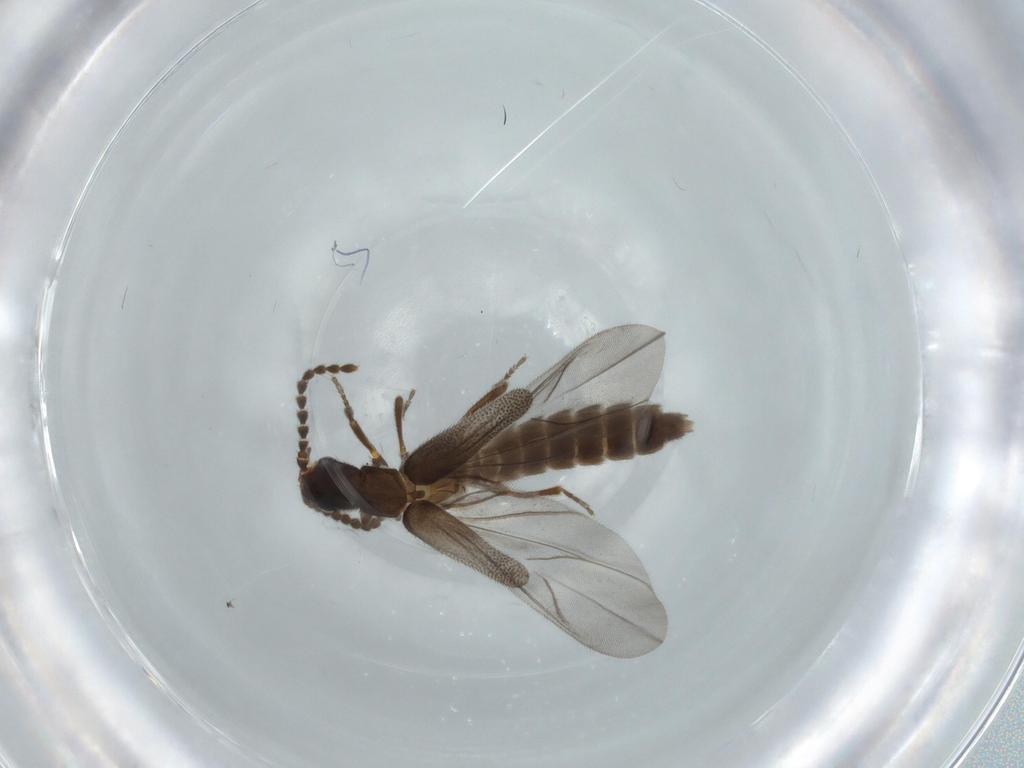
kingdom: Animalia
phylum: Arthropoda
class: Insecta
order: Coleoptera
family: Omethidae
